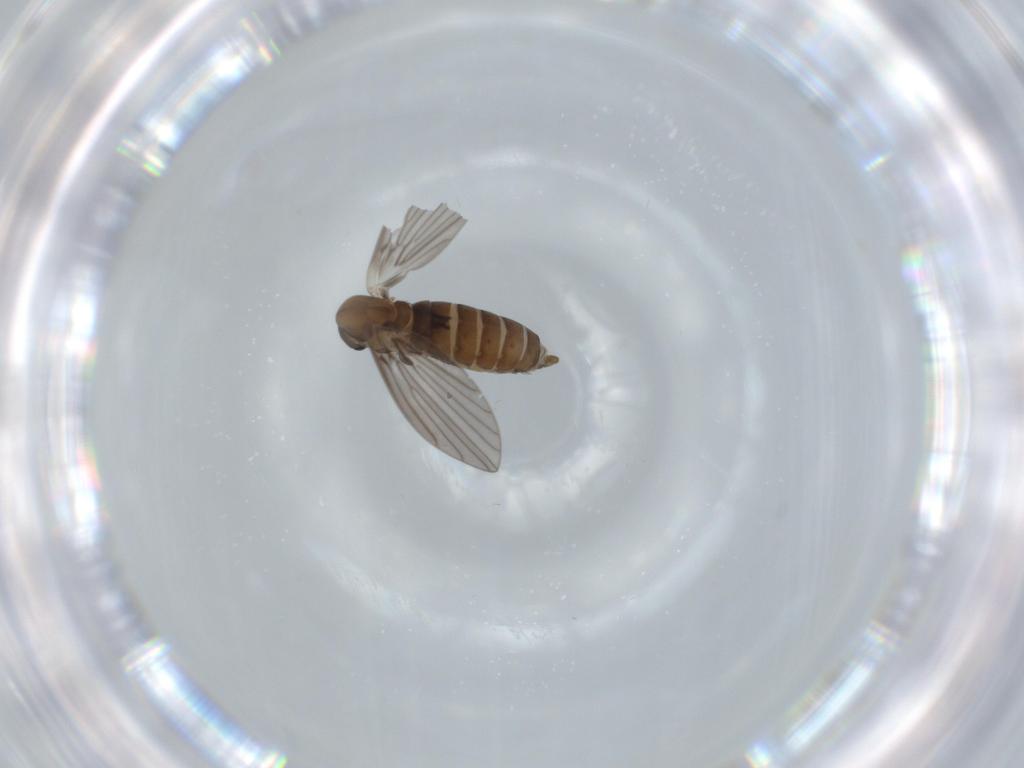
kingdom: Animalia
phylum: Arthropoda
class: Insecta
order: Diptera
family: Psychodidae
